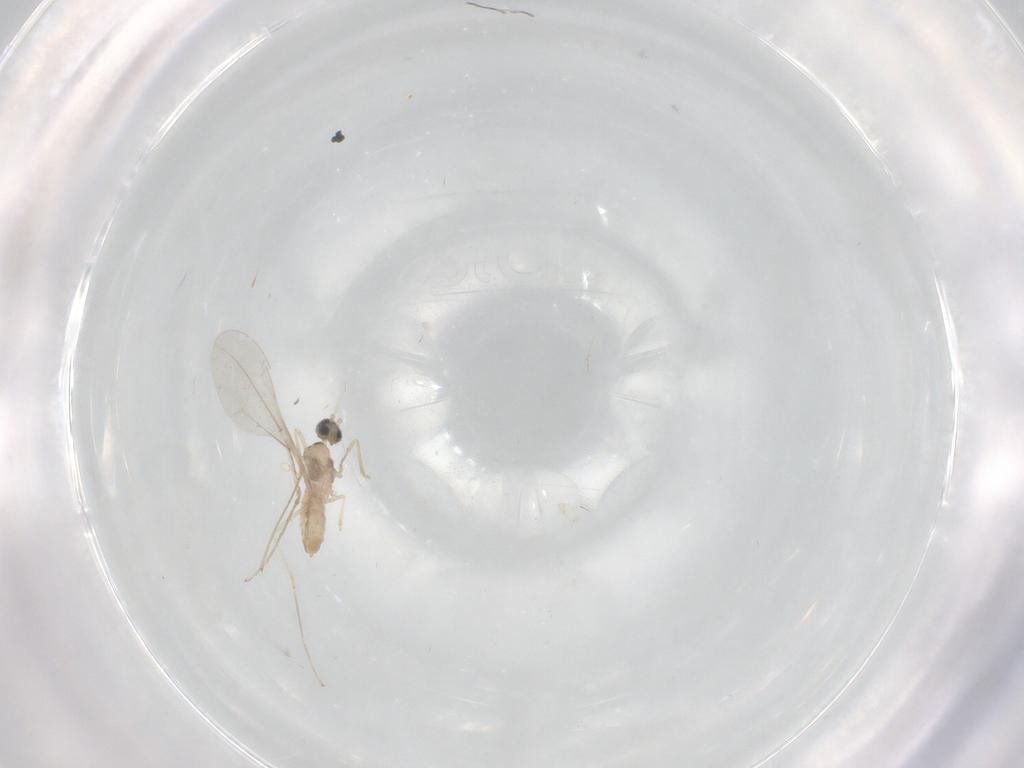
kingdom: Animalia
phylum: Arthropoda
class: Insecta
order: Diptera
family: Cecidomyiidae
